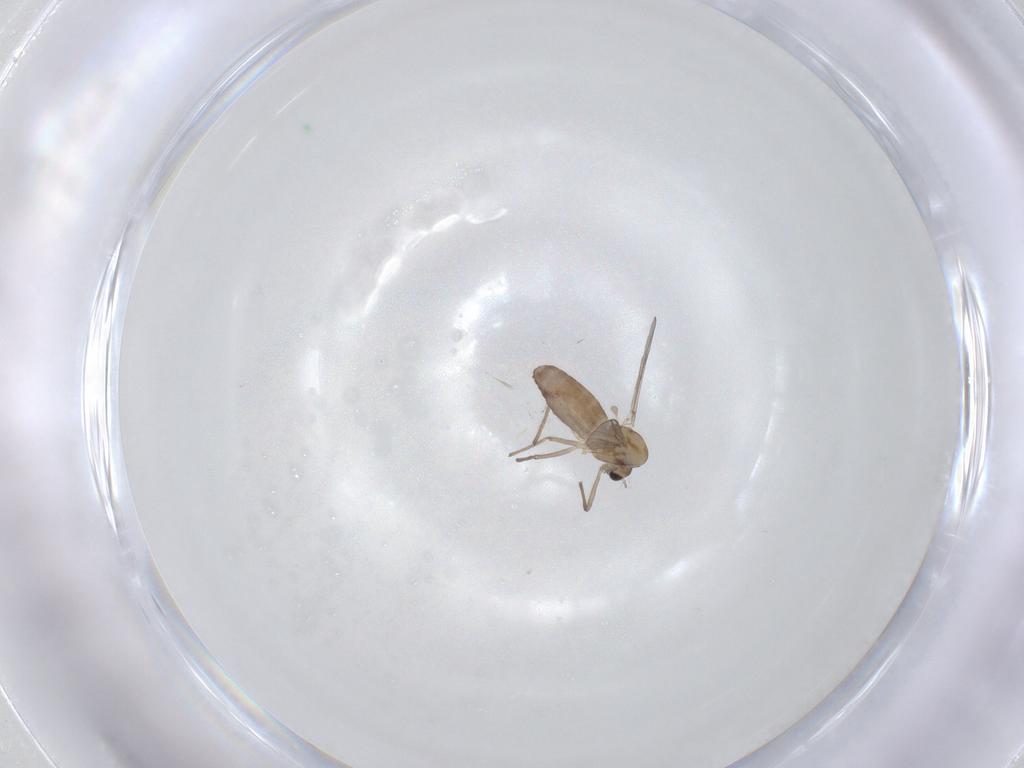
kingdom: Animalia
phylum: Arthropoda
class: Insecta
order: Diptera
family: Chironomidae
